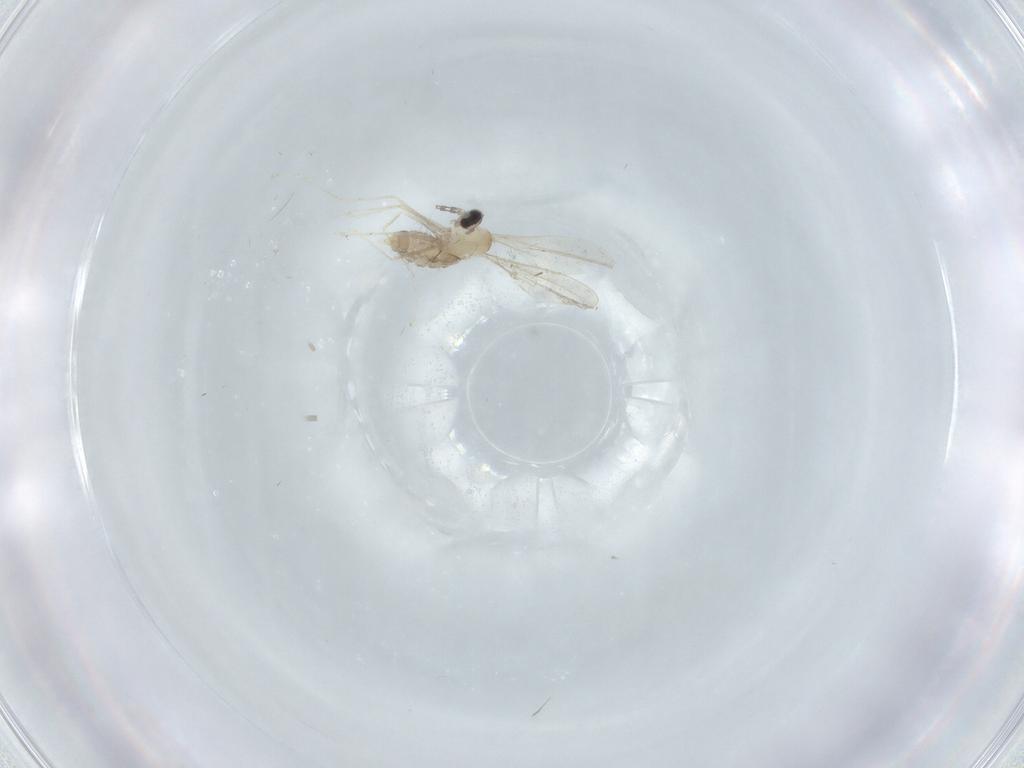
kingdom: Animalia
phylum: Arthropoda
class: Insecta
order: Diptera
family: Cecidomyiidae
